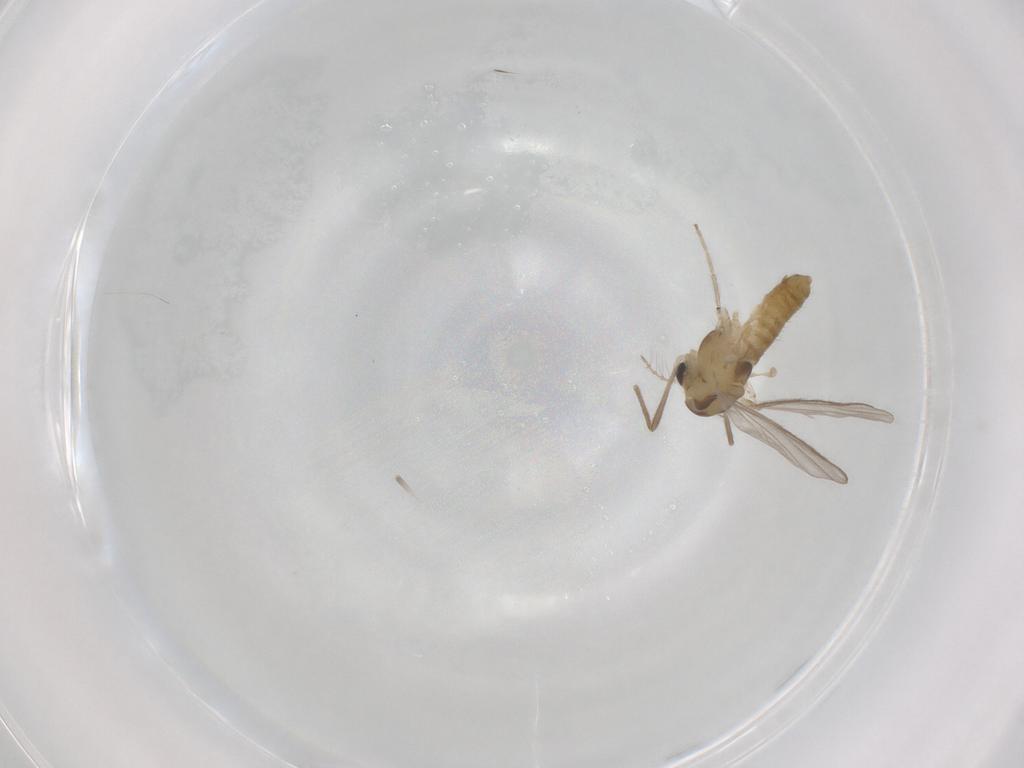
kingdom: Animalia
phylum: Arthropoda
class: Insecta
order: Diptera
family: Chironomidae
